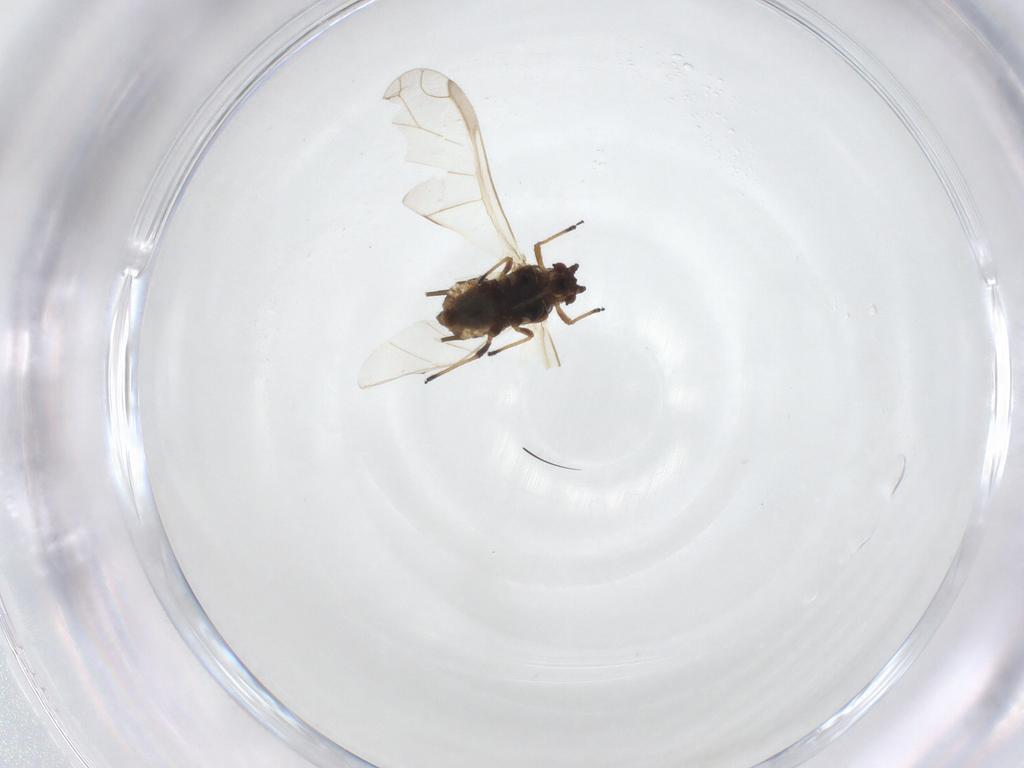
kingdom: Animalia
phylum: Arthropoda
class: Insecta
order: Hemiptera
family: Aphididae
